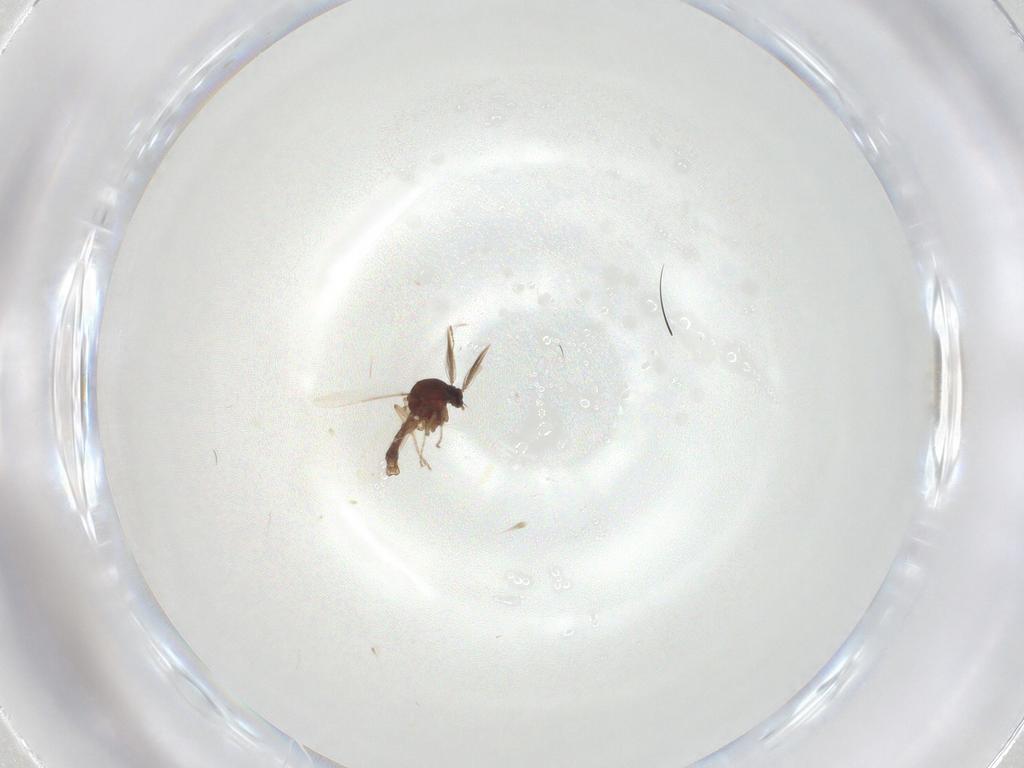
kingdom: Animalia
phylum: Arthropoda
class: Insecta
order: Diptera
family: Ceratopogonidae
